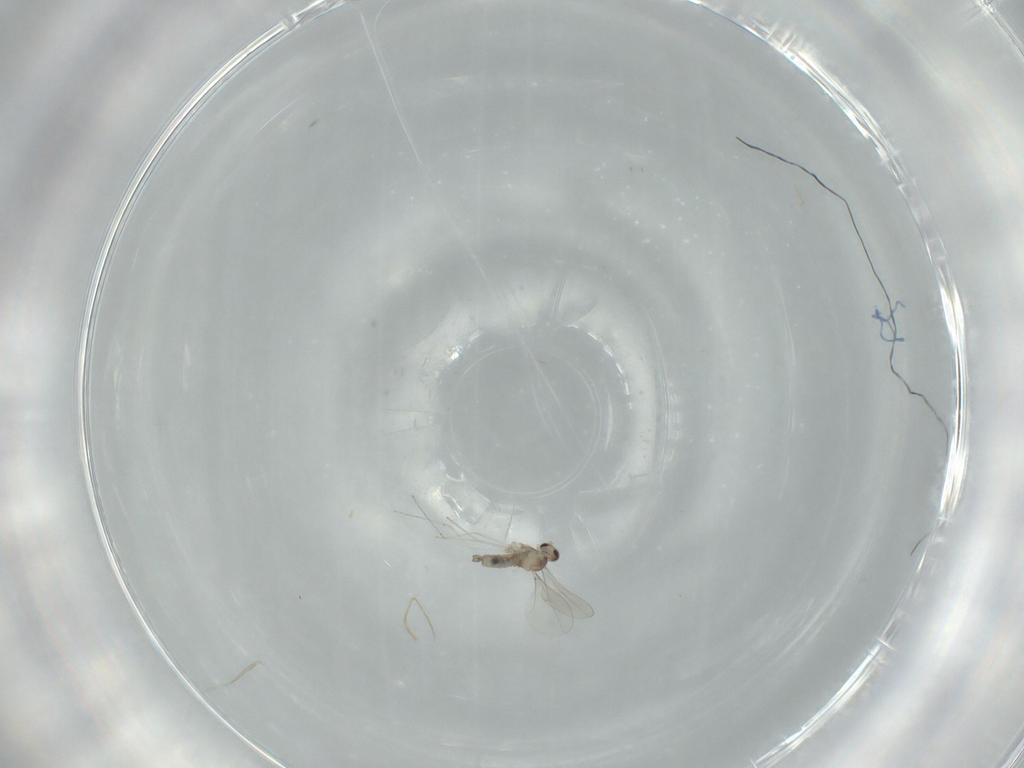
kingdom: Animalia
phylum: Arthropoda
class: Insecta
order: Diptera
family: Cecidomyiidae
